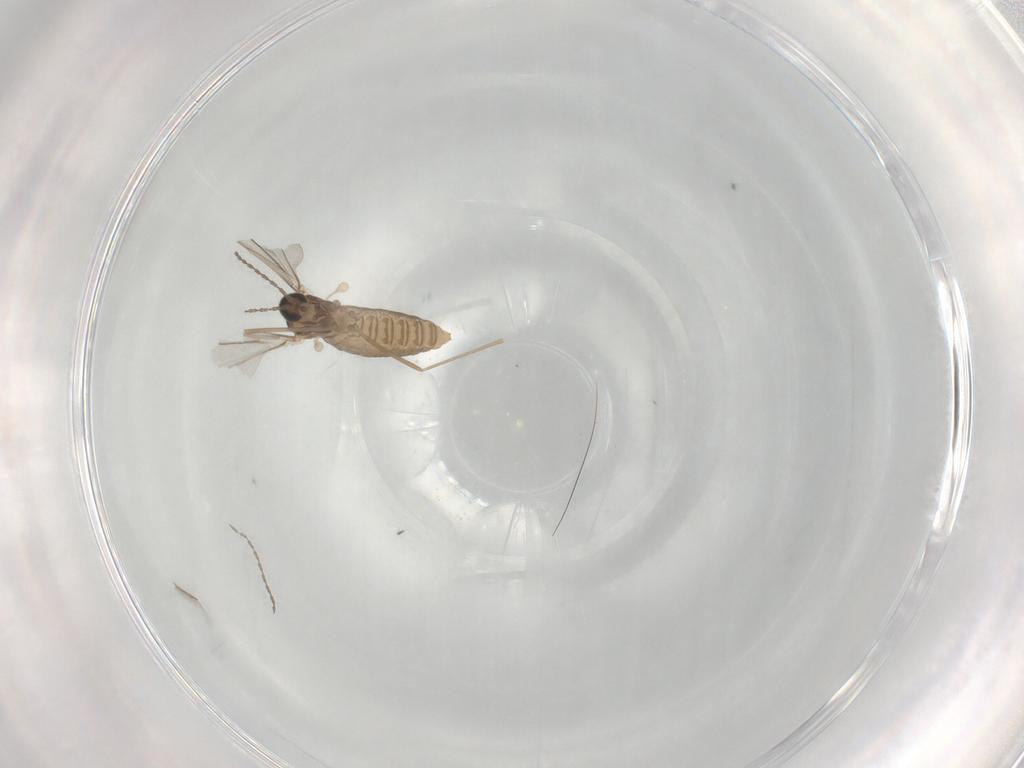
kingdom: Animalia
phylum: Arthropoda
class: Insecta
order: Diptera
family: Cecidomyiidae
